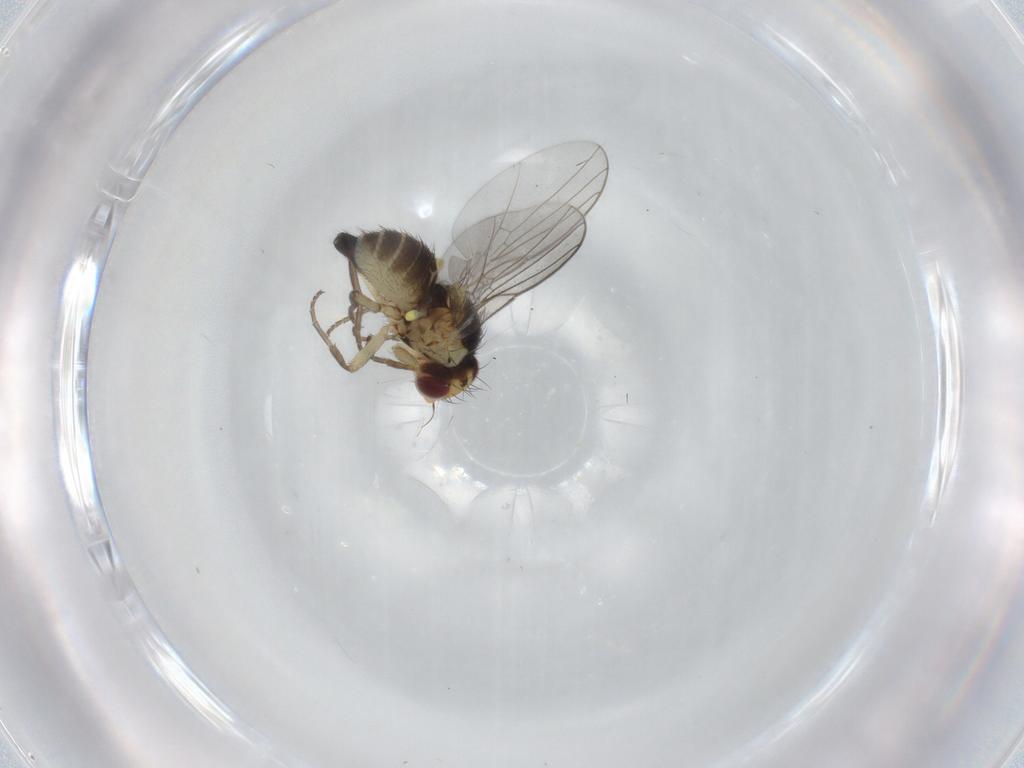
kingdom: Animalia
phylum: Arthropoda
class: Insecta
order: Diptera
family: Agromyzidae
